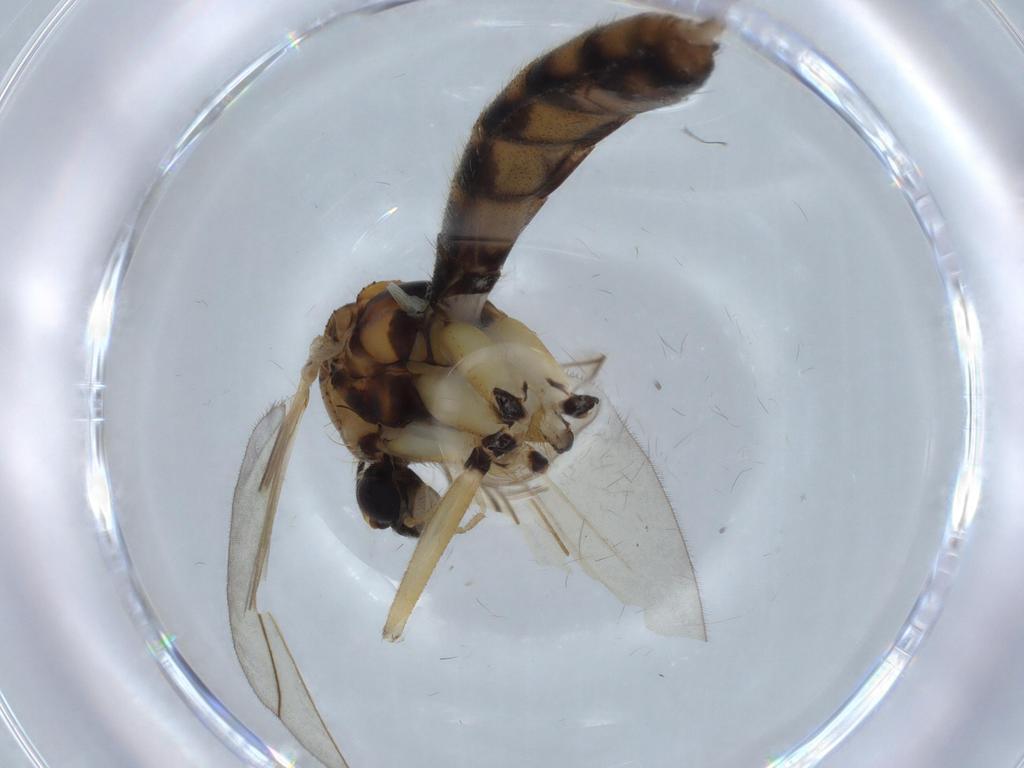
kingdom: Animalia
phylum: Arthropoda
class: Insecta
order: Diptera
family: Mycetophilidae
